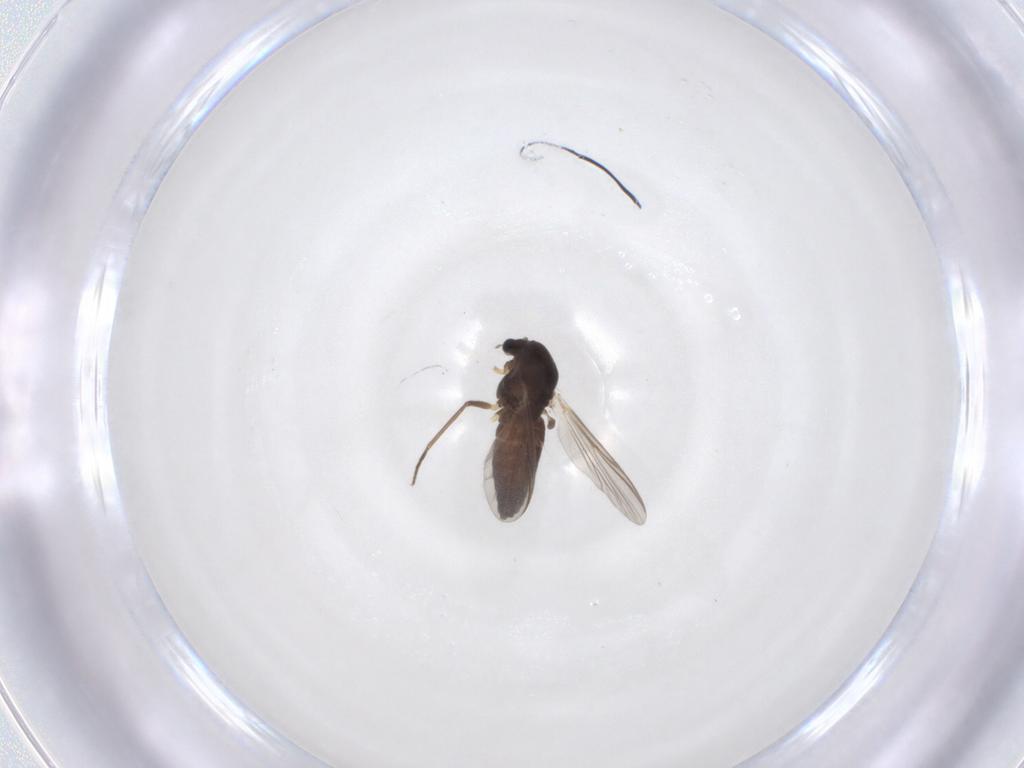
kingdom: Animalia
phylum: Arthropoda
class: Insecta
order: Diptera
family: Chironomidae
